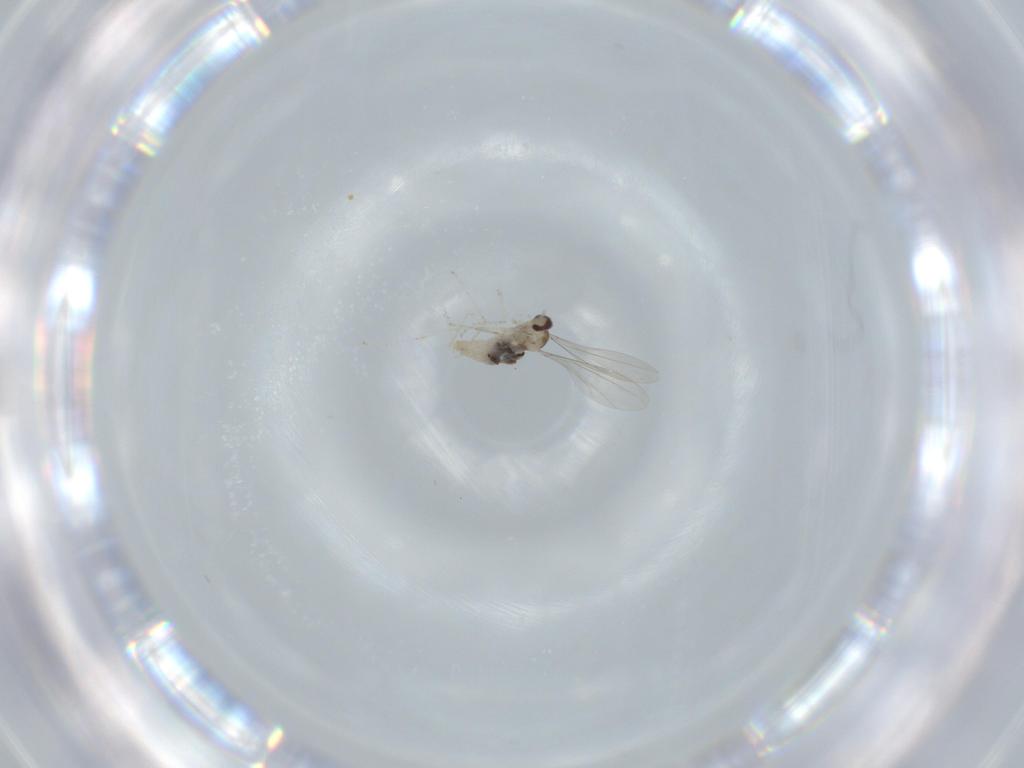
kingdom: Animalia
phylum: Arthropoda
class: Insecta
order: Diptera
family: Cecidomyiidae
